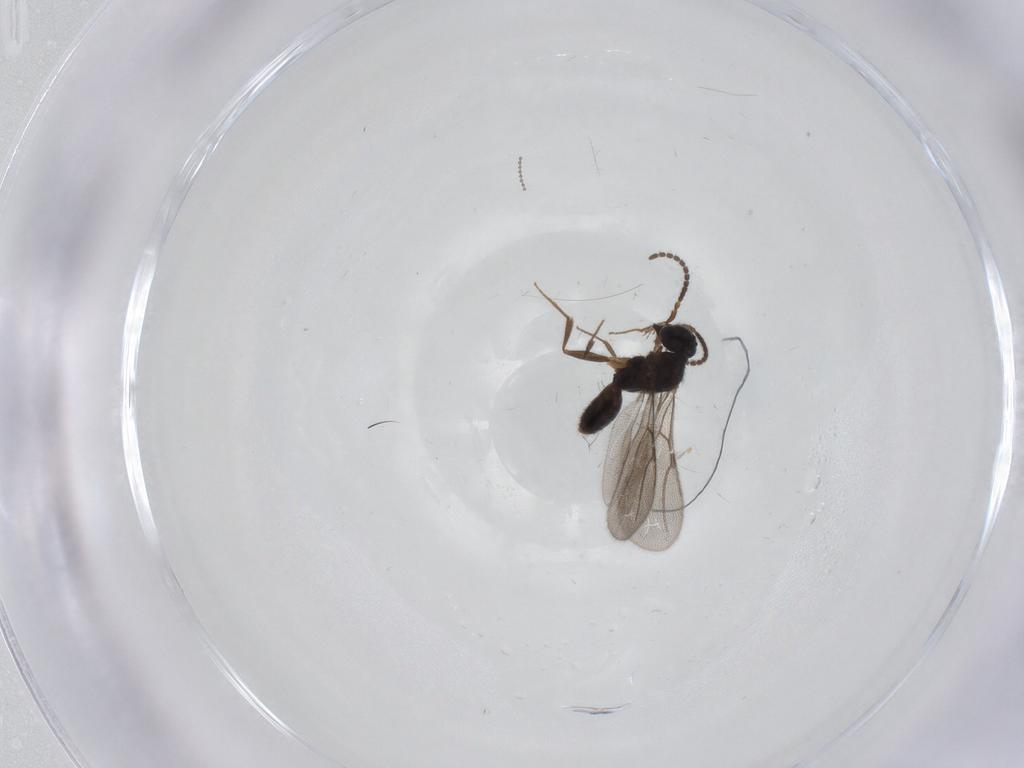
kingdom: Animalia
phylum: Arthropoda
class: Insecta
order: Hymenoptera
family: Bethylidae
